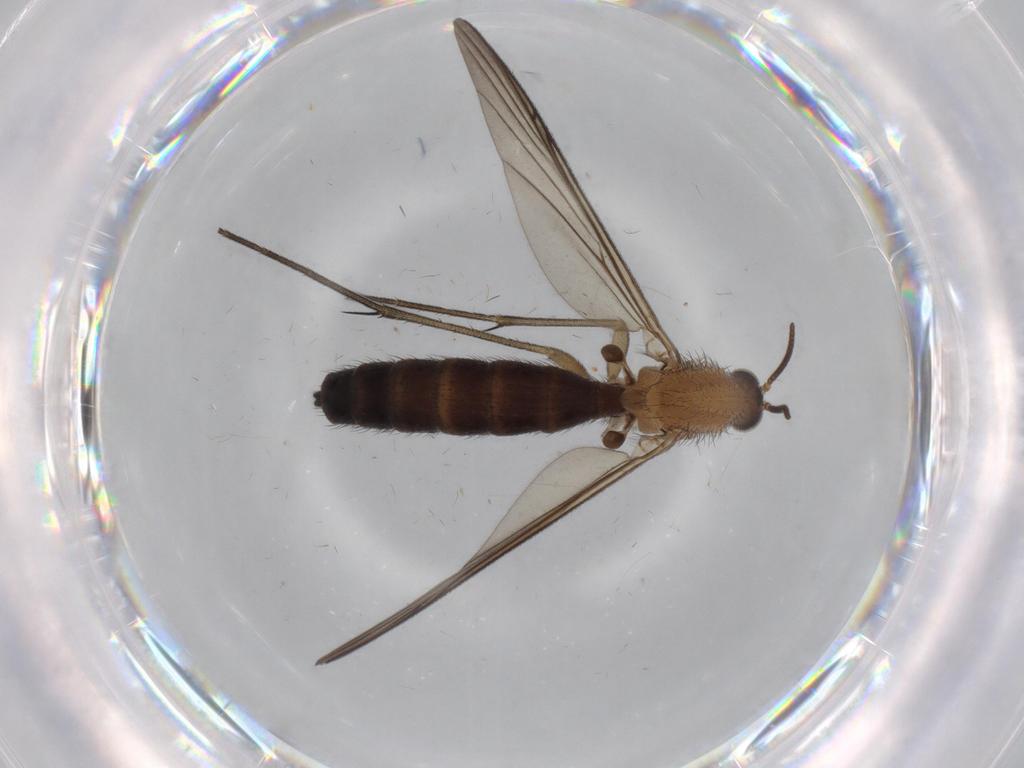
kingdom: Animalia
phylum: Arthropoda
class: Insecta
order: Diptera
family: Keroplatidae
